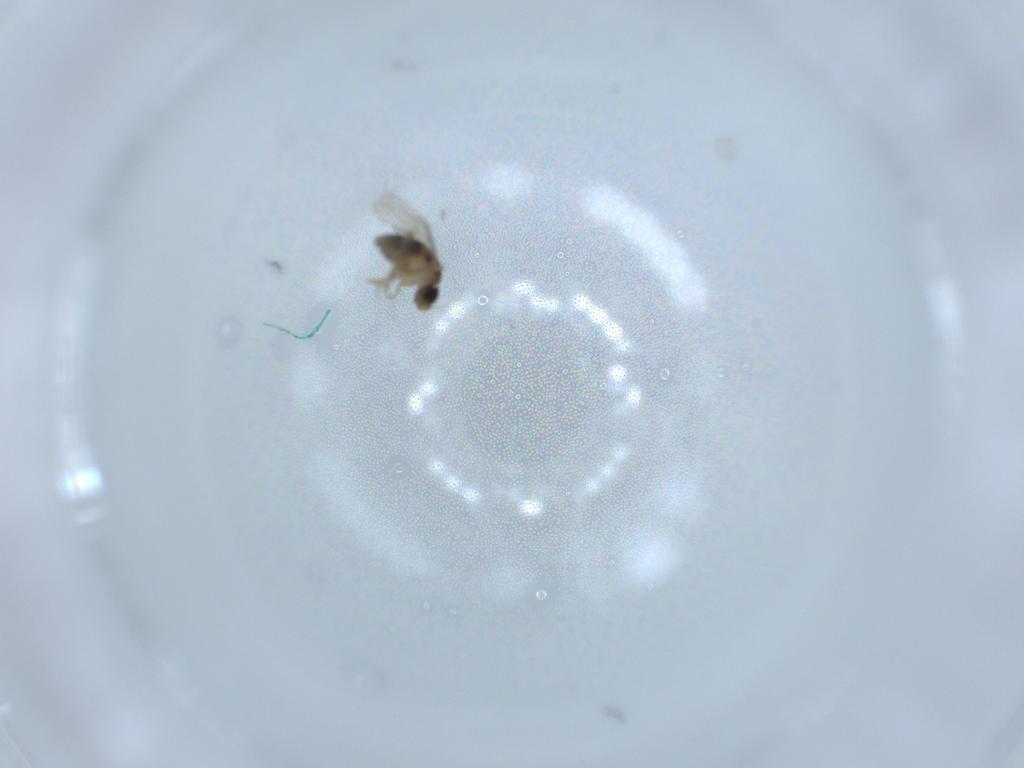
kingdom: Animalia
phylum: Arthropoda
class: Insecta
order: Diptera
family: Phoridae
